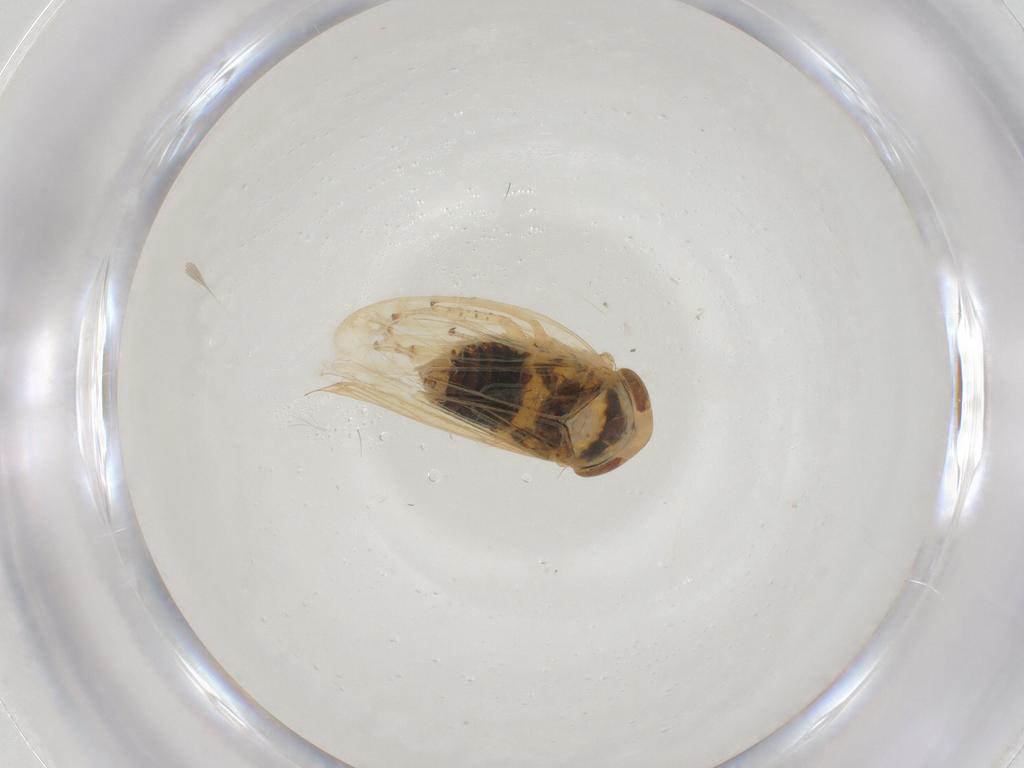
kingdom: Animalia
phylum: Arthropoda
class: Insecta
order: Hemiptera
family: Cicadellidae
